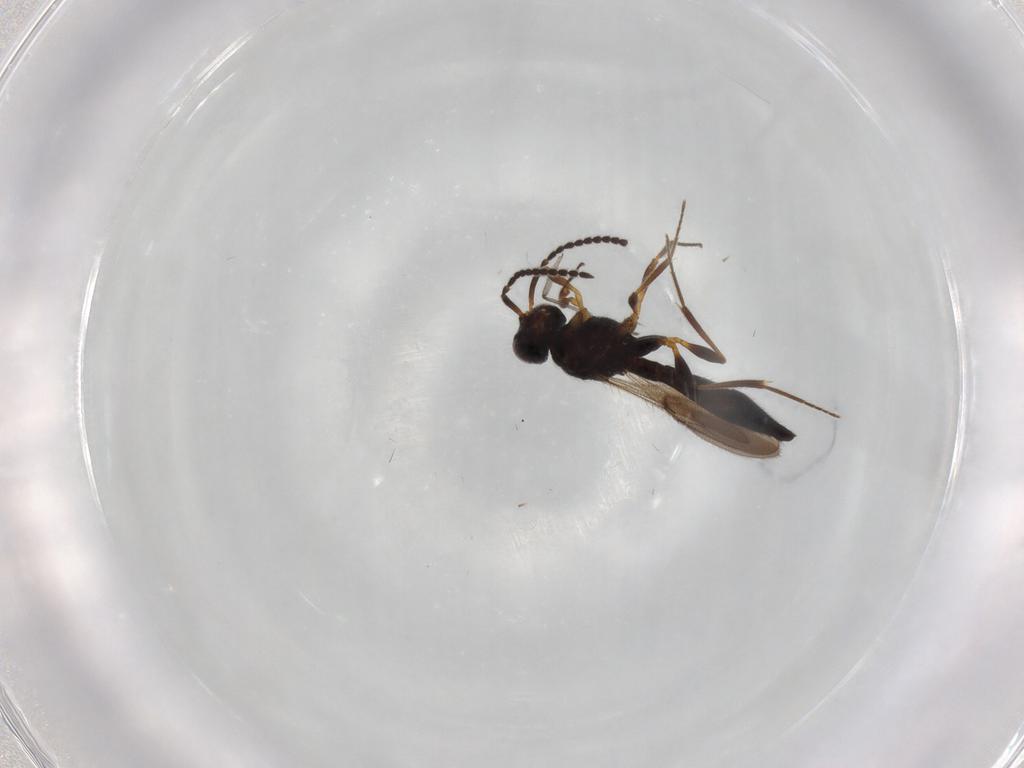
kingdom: Animalia
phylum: Arthropoda
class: Insecta
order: Hymenoptera
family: Scelionidae
